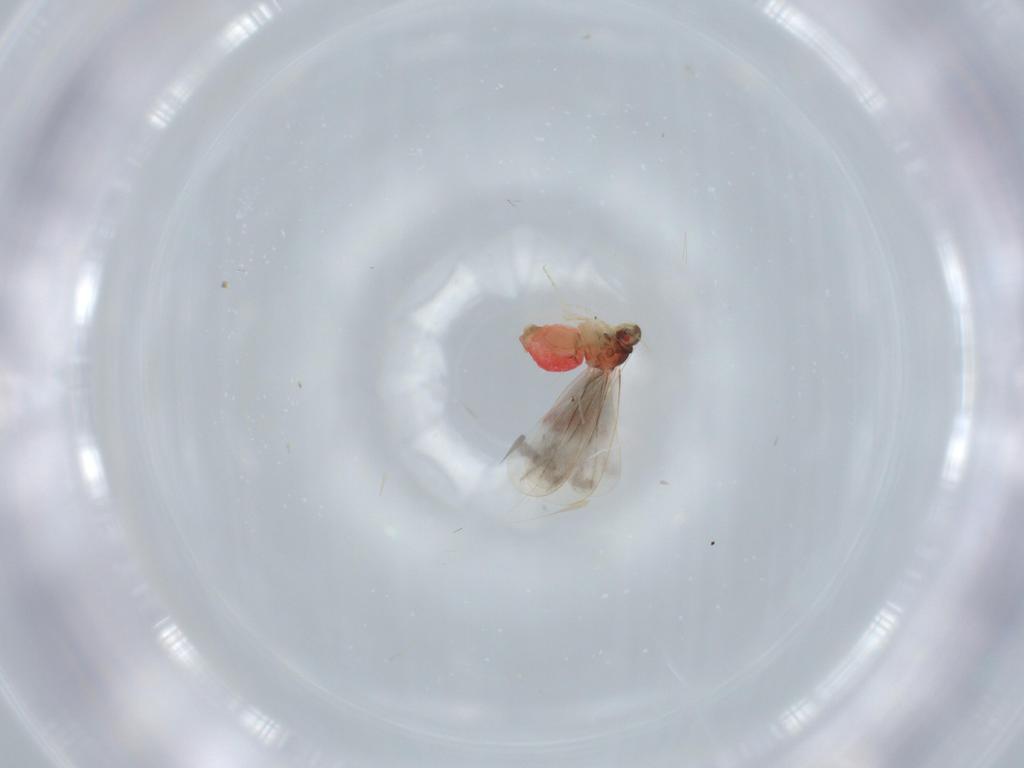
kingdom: Animalia
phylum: Arthropoda
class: Insecta
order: Hemiptera
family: Aleyrodidae
